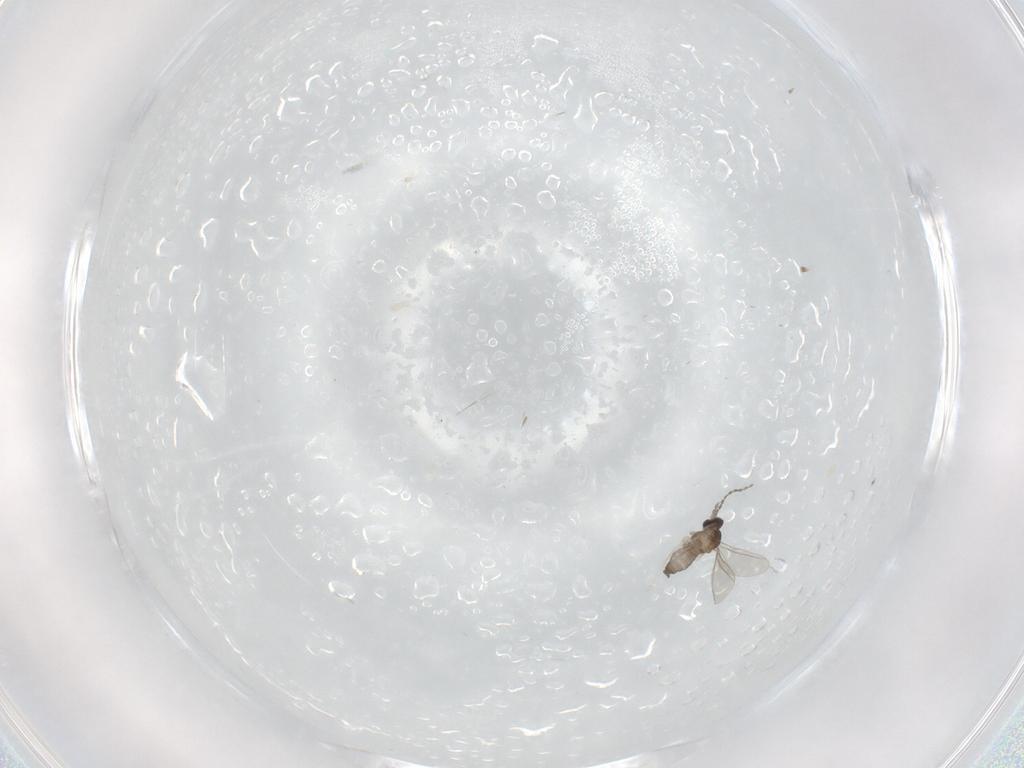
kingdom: Animalia
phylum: Arthropoda
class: Insecta
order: Diptera
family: Cecidomyiidae
